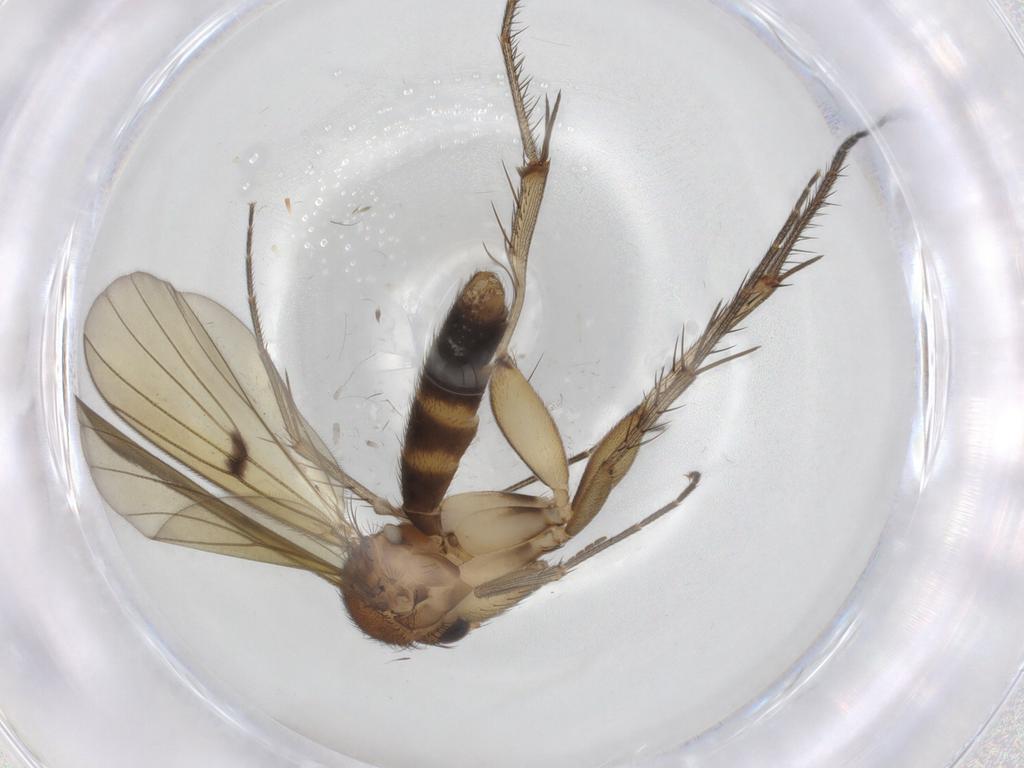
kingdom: Animalia
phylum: Arthropoda
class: Insecta
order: Diptera
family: Mycetophilidae
